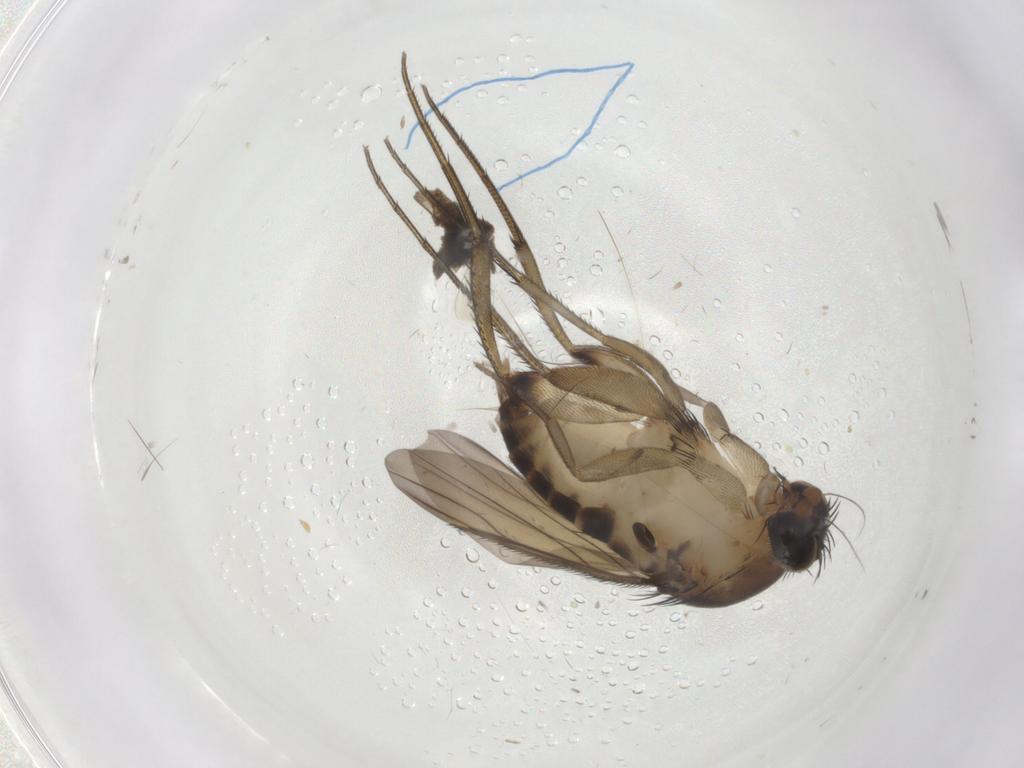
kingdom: Animalia
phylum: Arthropoda
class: Insecta
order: Diptera
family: Phoridae
